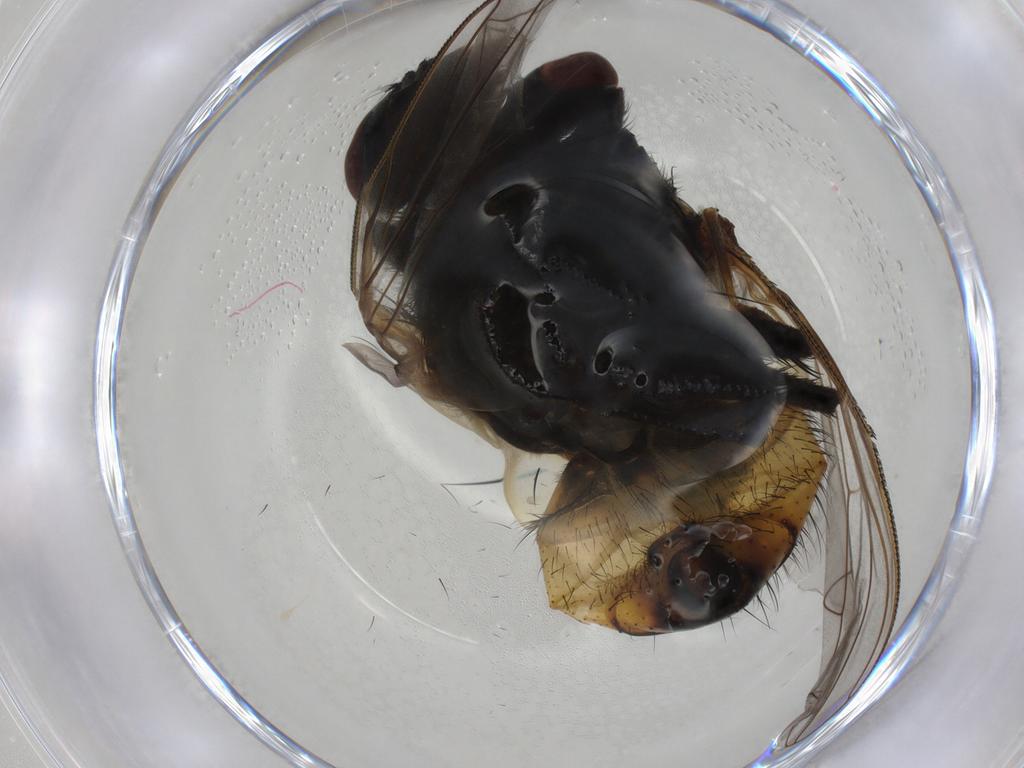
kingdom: Animalia
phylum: Arthropoda
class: Insecta
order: Diptera
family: Muscidae
